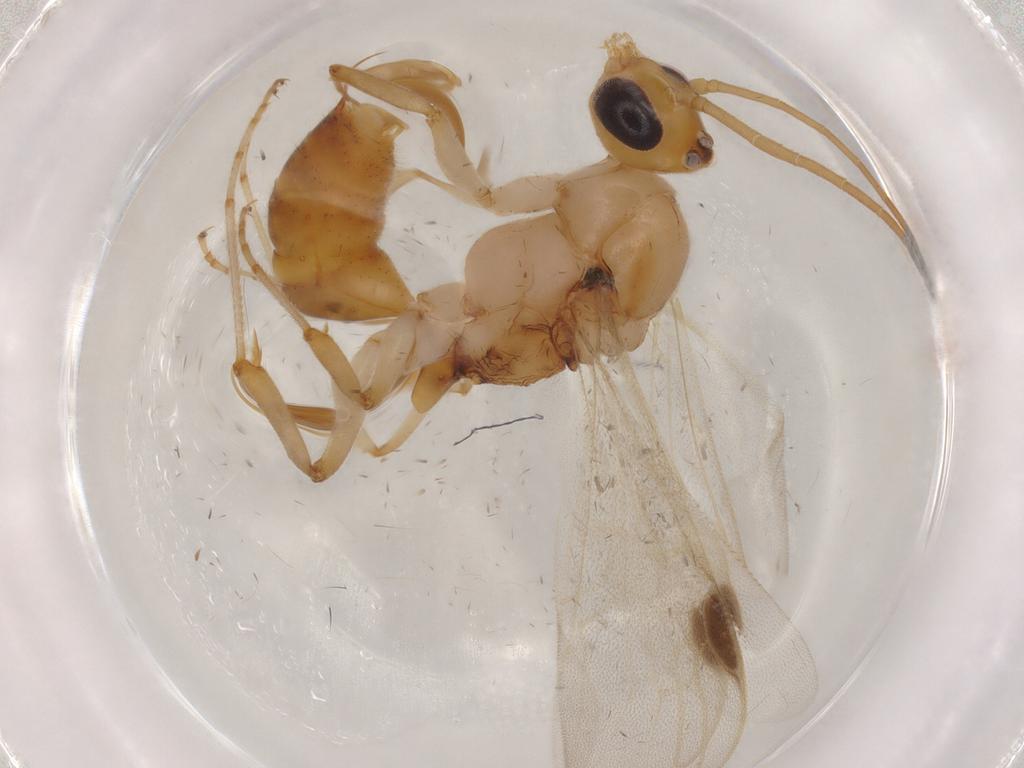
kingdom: Animalia
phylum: Arthropoda
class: Insecta
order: Hymenoptera
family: Formicidae
